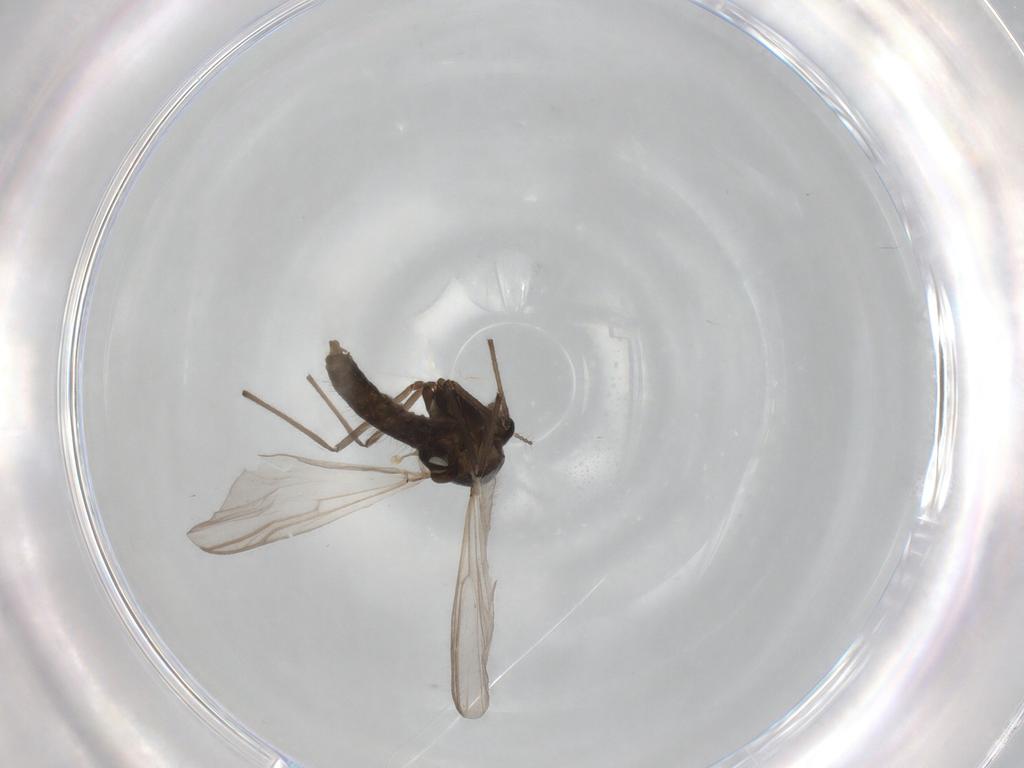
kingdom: Animalia
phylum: Arthropoda
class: Insecta
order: Diptera
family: Chironomidae
